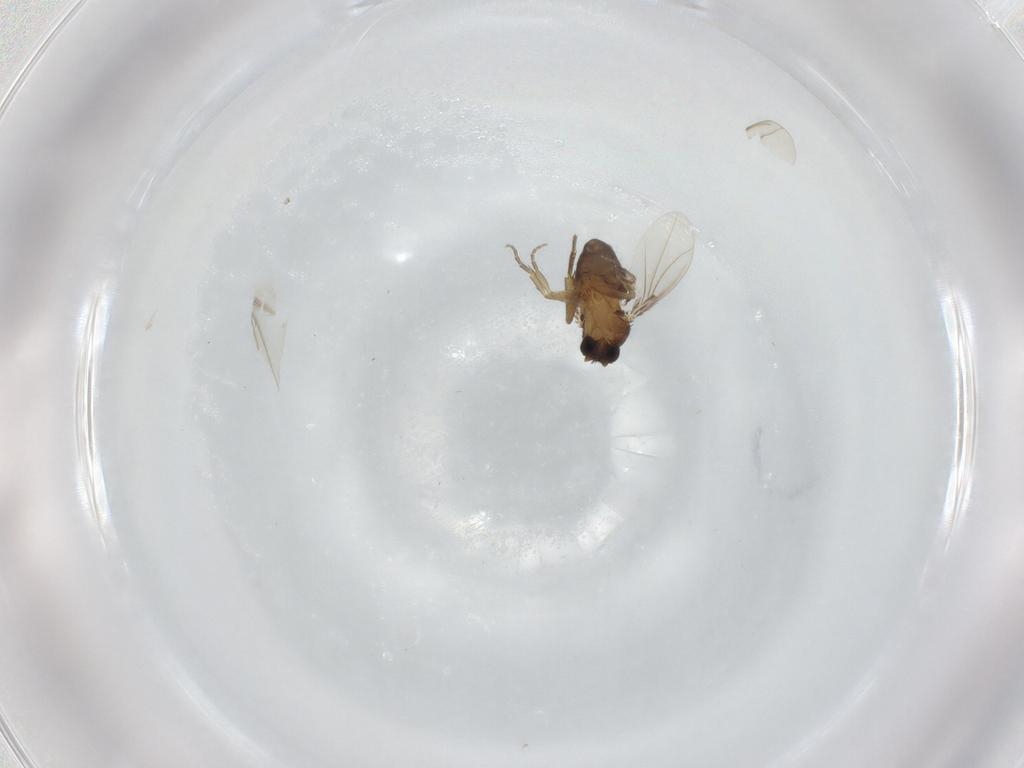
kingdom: Animalia
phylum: Arthropoda
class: Insecta
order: Diptera
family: Phoridae
